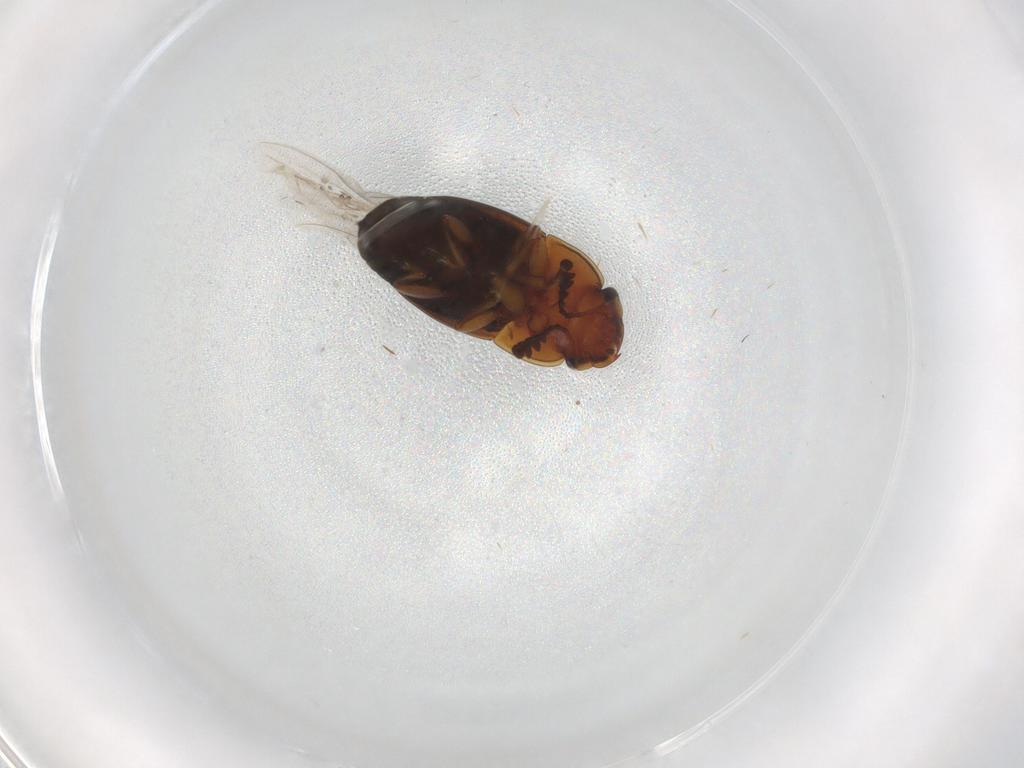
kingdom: Animalia
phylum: Arthropoda
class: Insecta
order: Coleoptera
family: Nitidulidae
